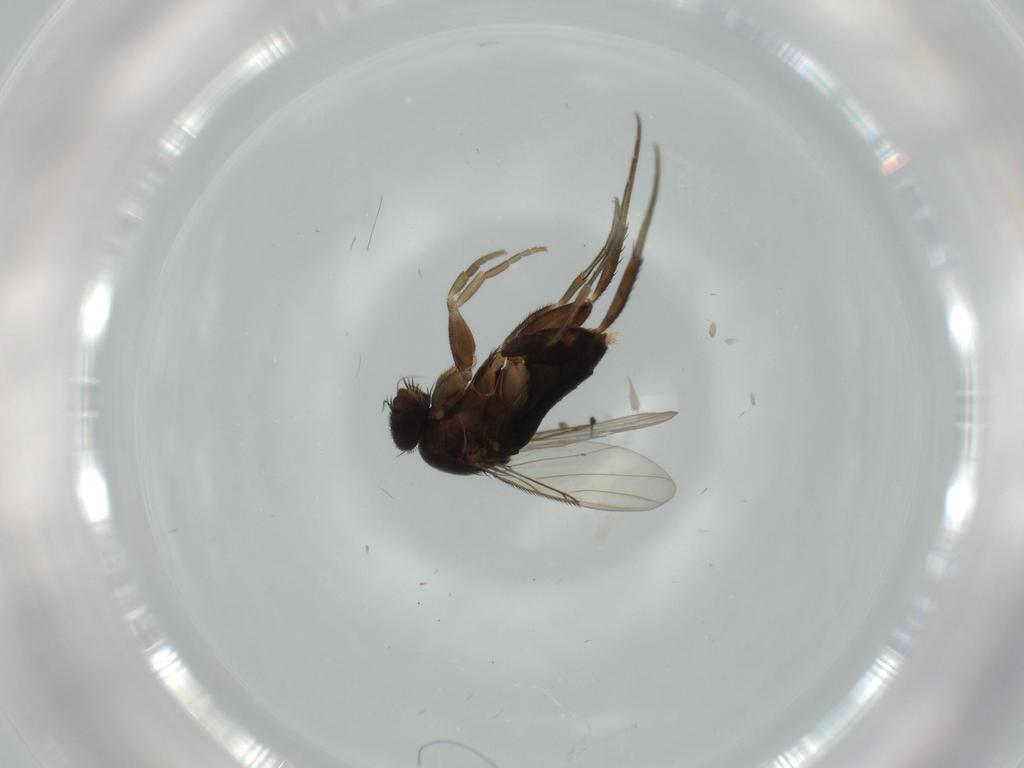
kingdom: Animalia
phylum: Arthropoda
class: Insecta
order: Diptera
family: Phoridae
